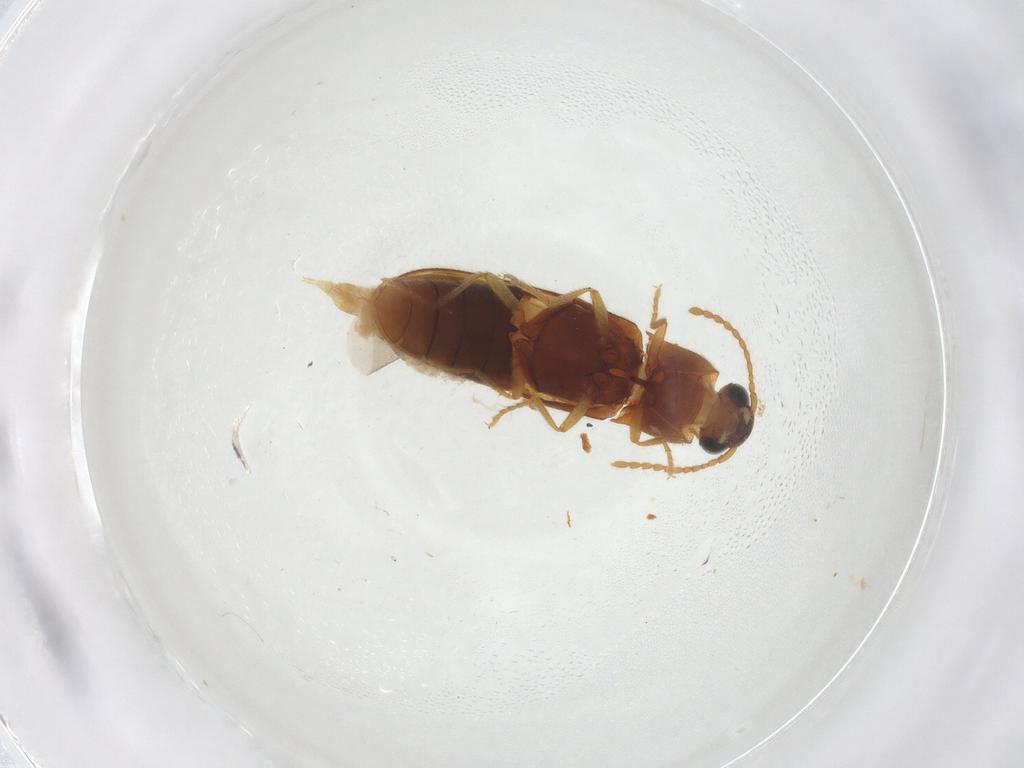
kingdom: Animalia
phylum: Arthropoda
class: Insecta
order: Coleoptera
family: Elateridae
